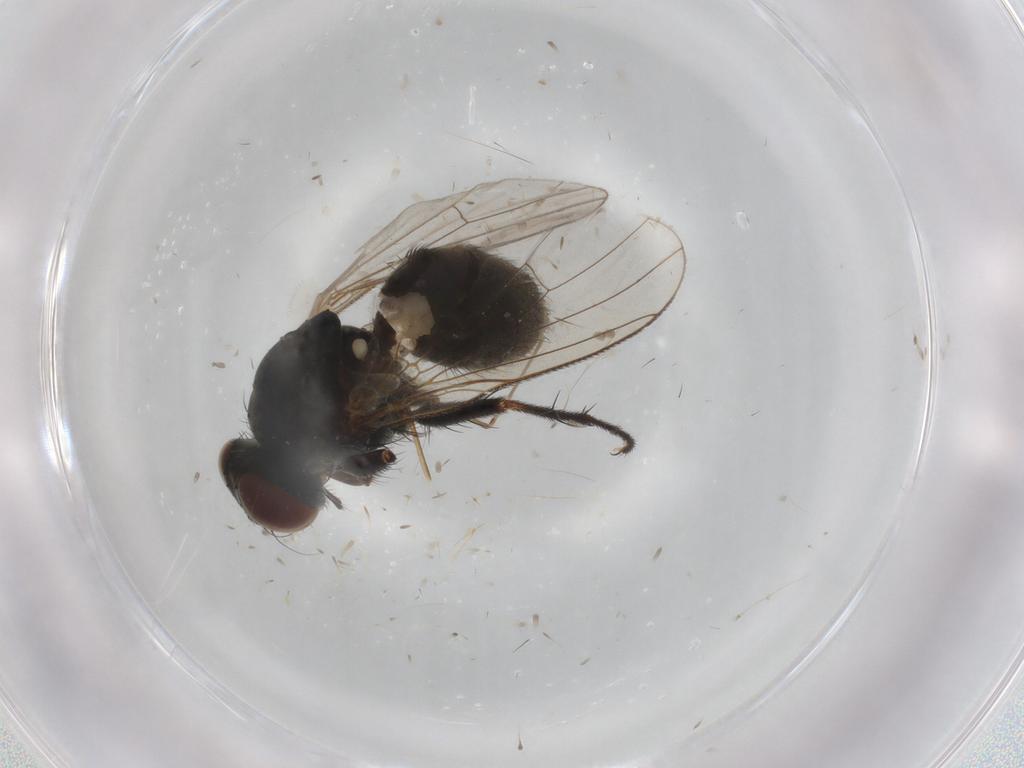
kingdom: Animalia
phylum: Arthropoda
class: Insecta
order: Diptera
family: Muscidae
